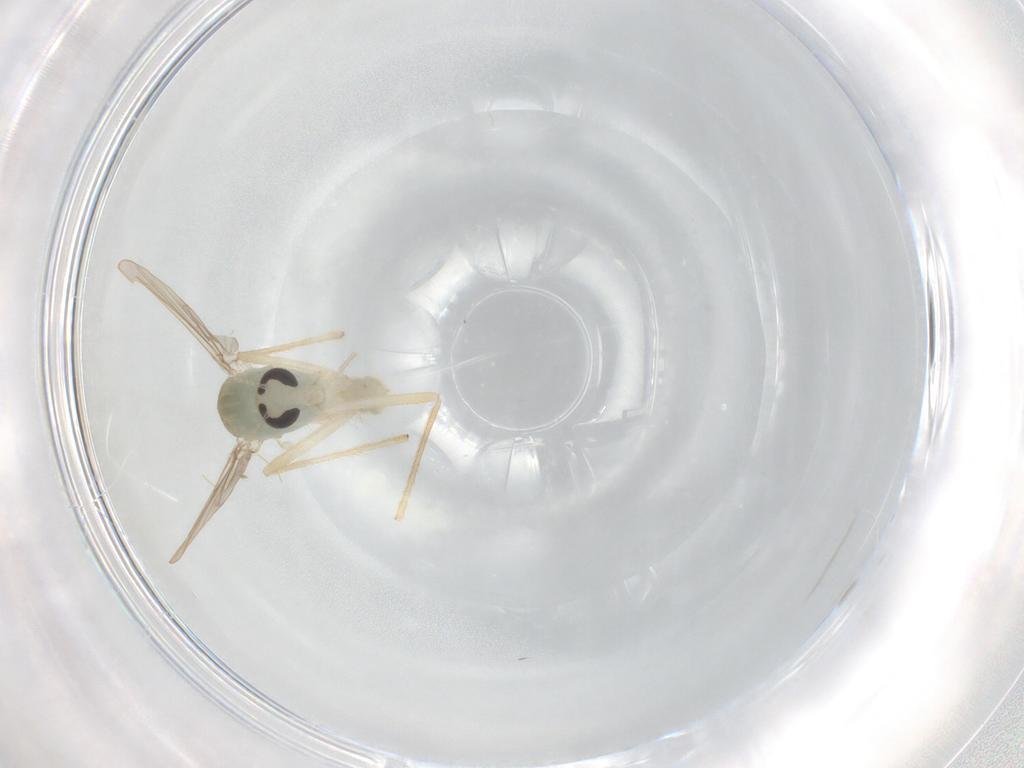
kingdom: Animalia
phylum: Arthropoda
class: Insecta
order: Diptera
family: Chironomidae
